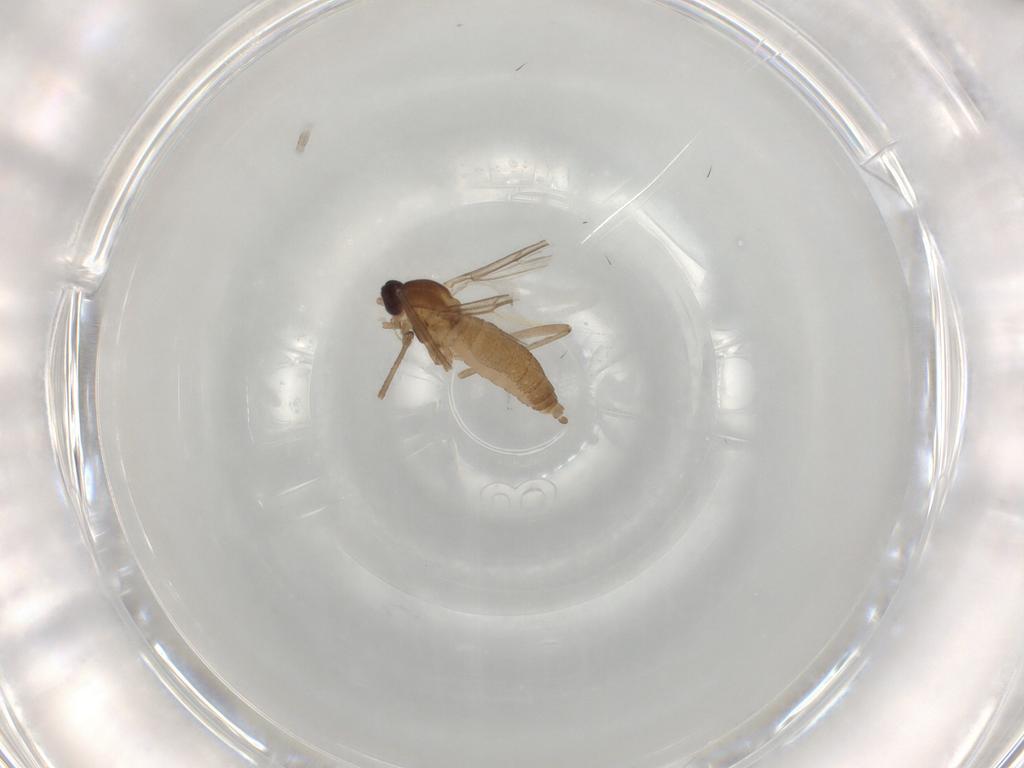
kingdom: Animalia
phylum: Arthropoda
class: Insecta
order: Diptera
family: Cecidomyiidae
